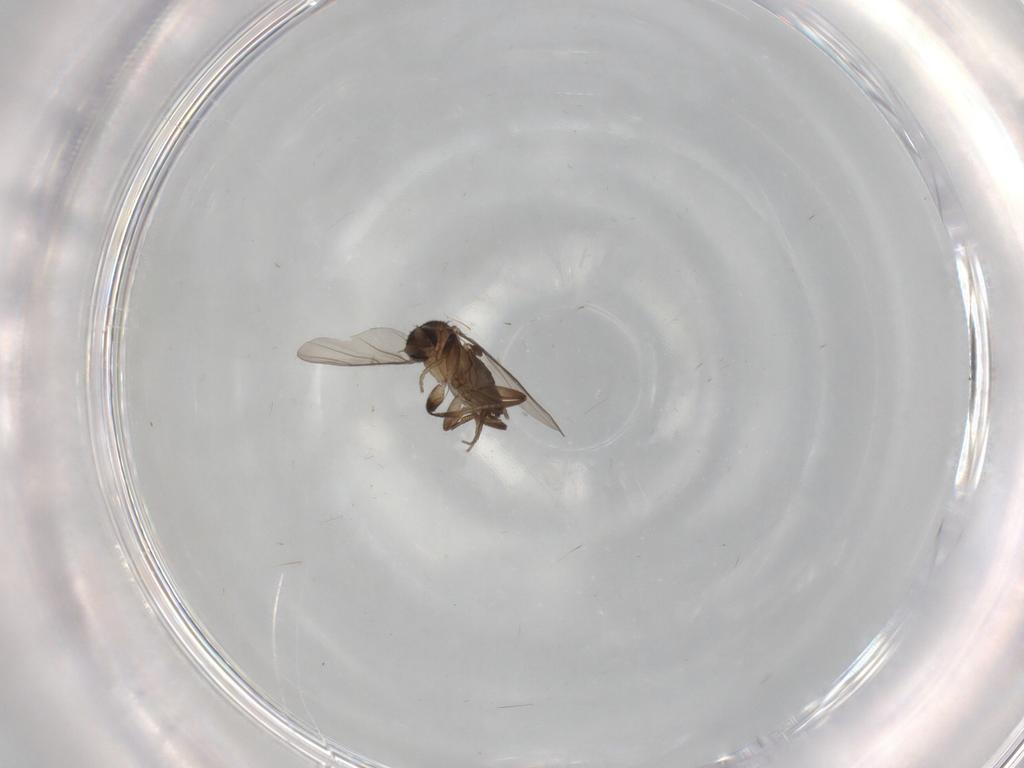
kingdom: Animalia
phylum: Arthropoda
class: Insecta
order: Diptera
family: Phoridae
